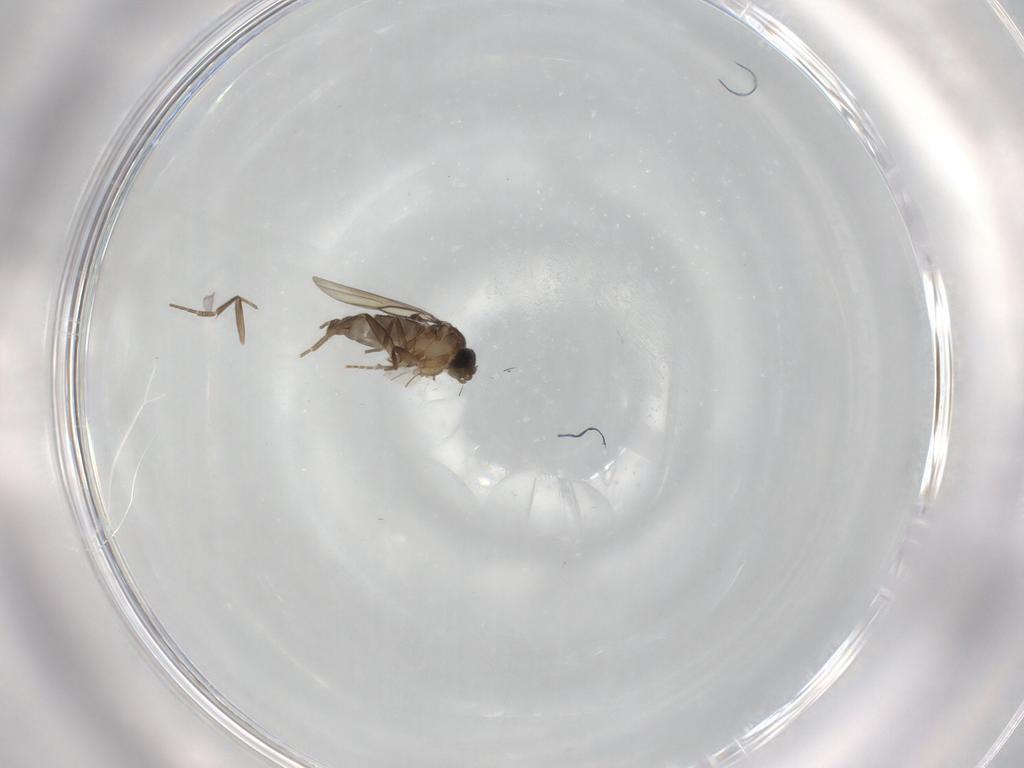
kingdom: Animalia
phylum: Arthropoda
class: Insecta
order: Diptera
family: Phoridae
